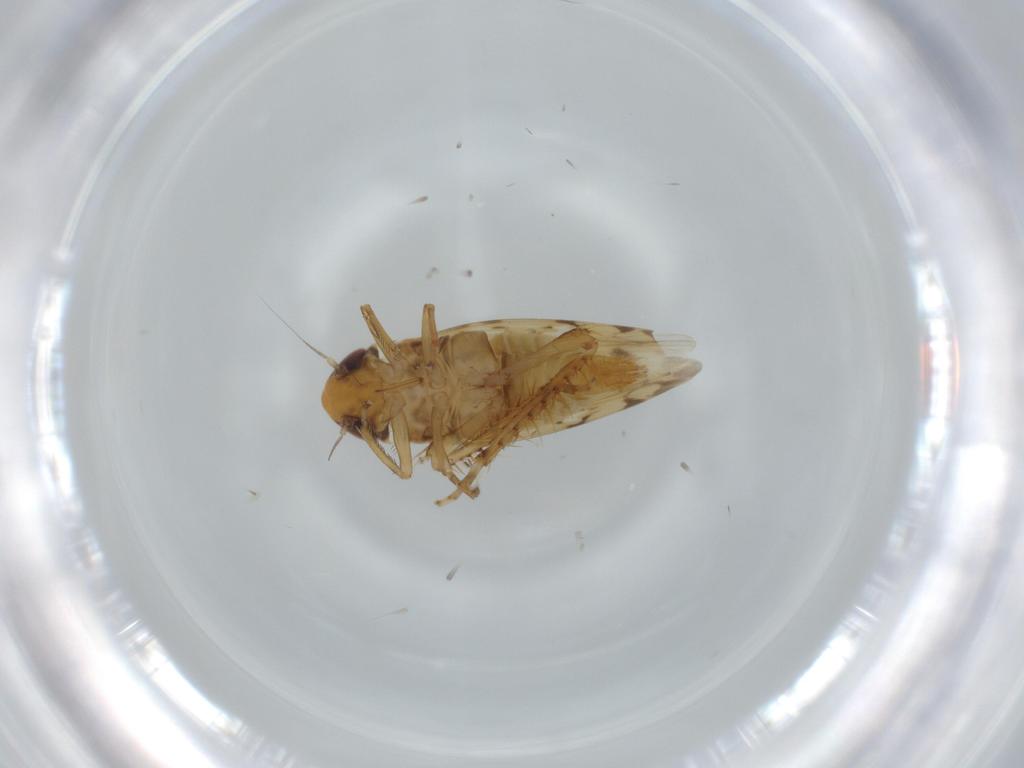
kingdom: Animalia
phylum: Arthropoda
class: Insecta
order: Hemiptera
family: Cicadellidae
